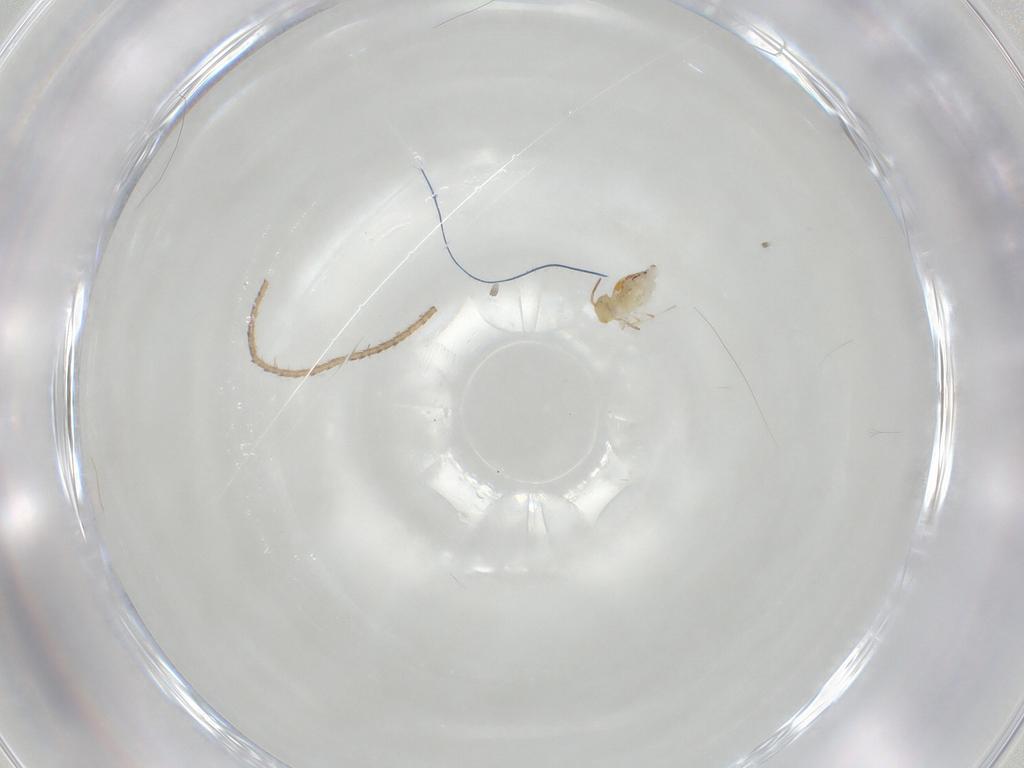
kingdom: Animalia
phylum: Arthropoda
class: Collembola
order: Symphypleona
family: Bourletiellidae
